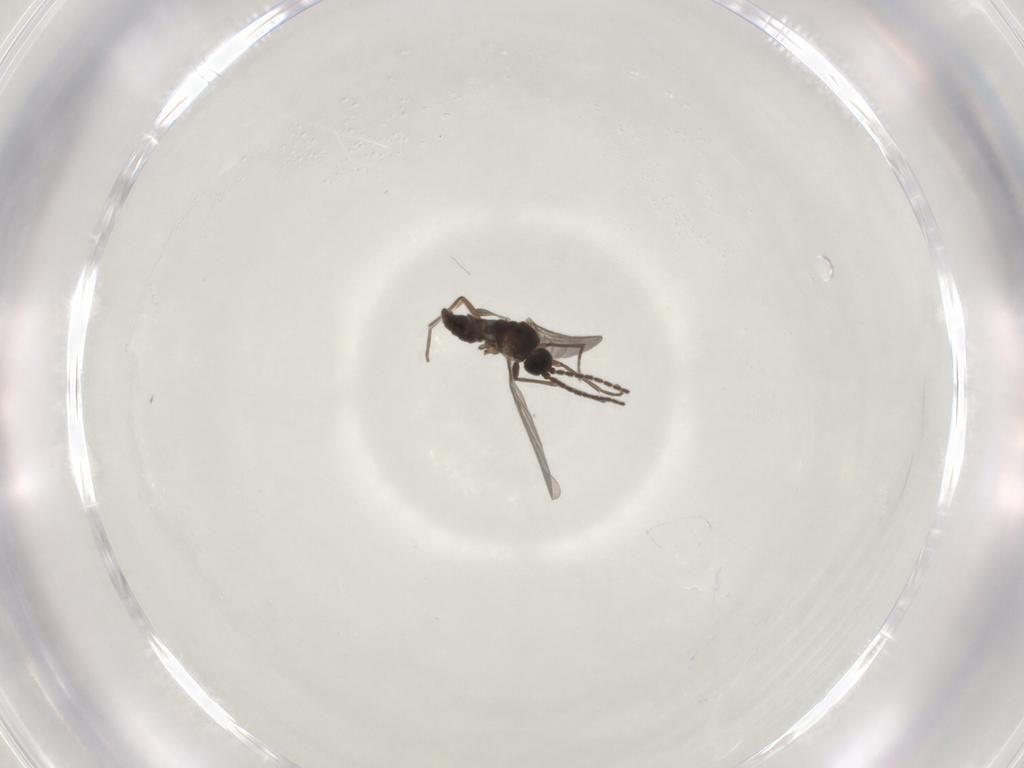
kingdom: Animalia
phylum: Arthropoda
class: Insecta
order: Diptera
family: Sciaridae
